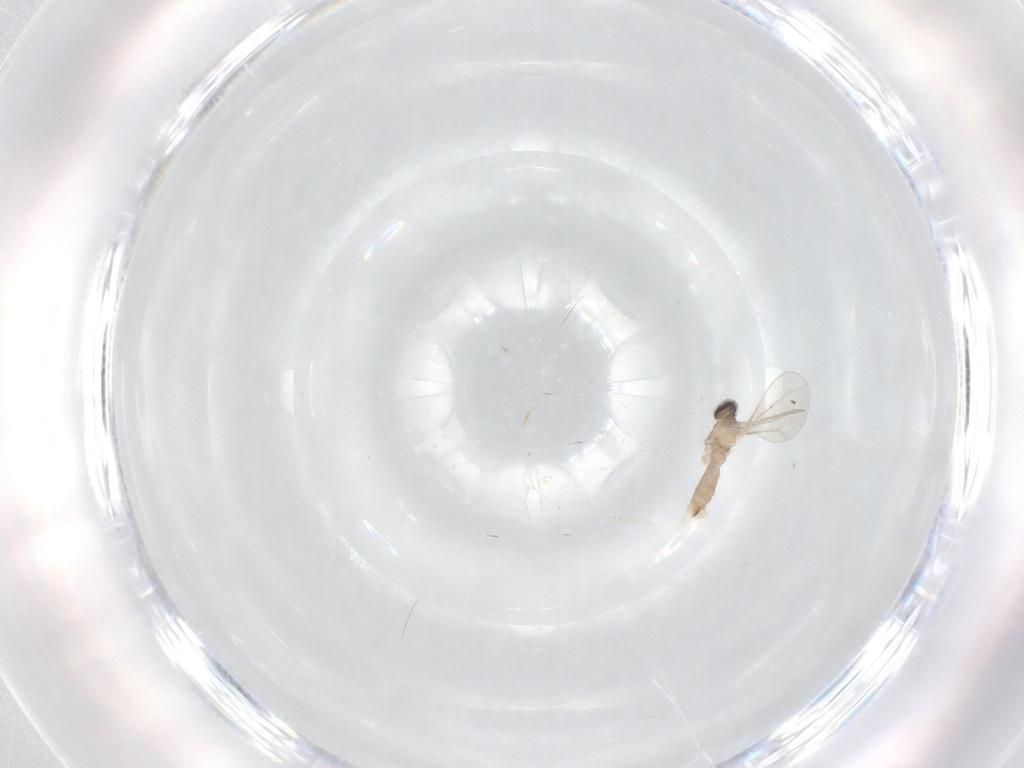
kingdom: Animalia
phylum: Arthropoda
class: Insecta
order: Diptera
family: Cecidomyiidae
